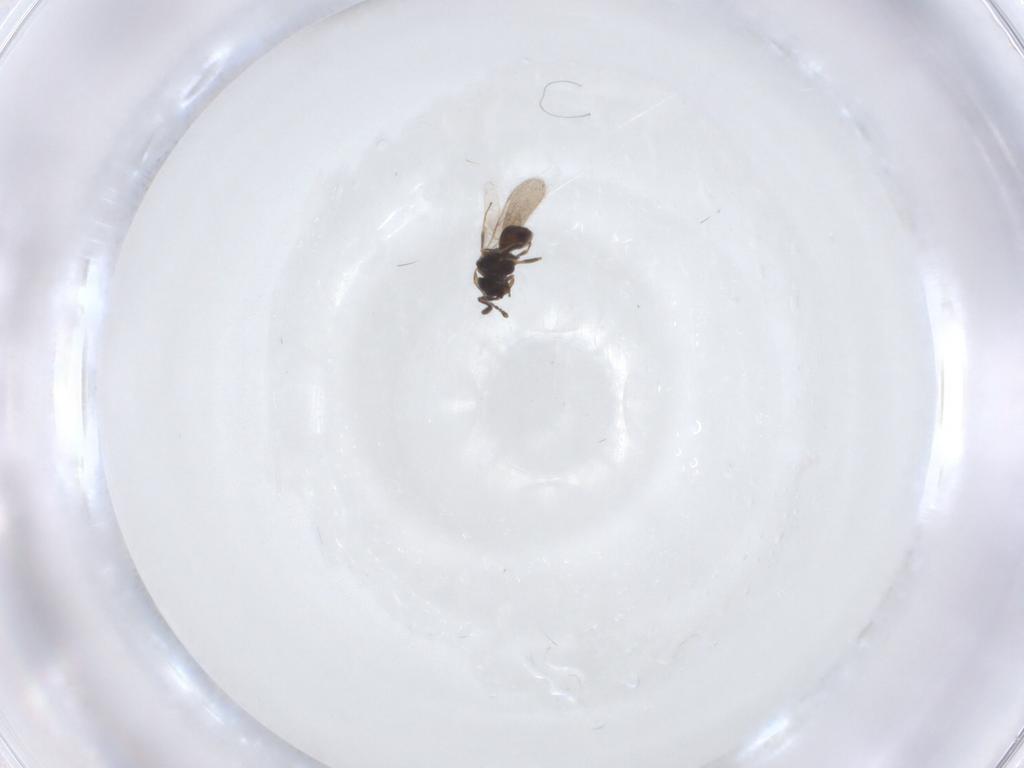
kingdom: Animalia
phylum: Arthropoda
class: Insecta
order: Hymenoptera
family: Scelionidae
